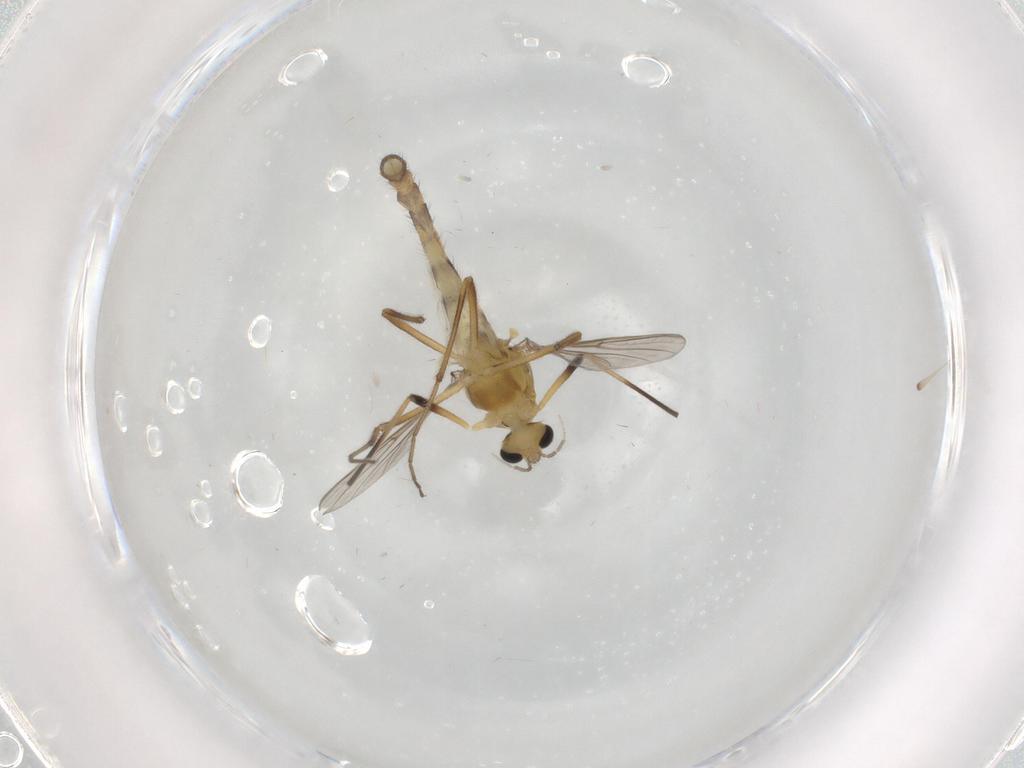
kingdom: Animalia
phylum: Arthropoda
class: Insecta
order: Diptera
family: Chironomidae
